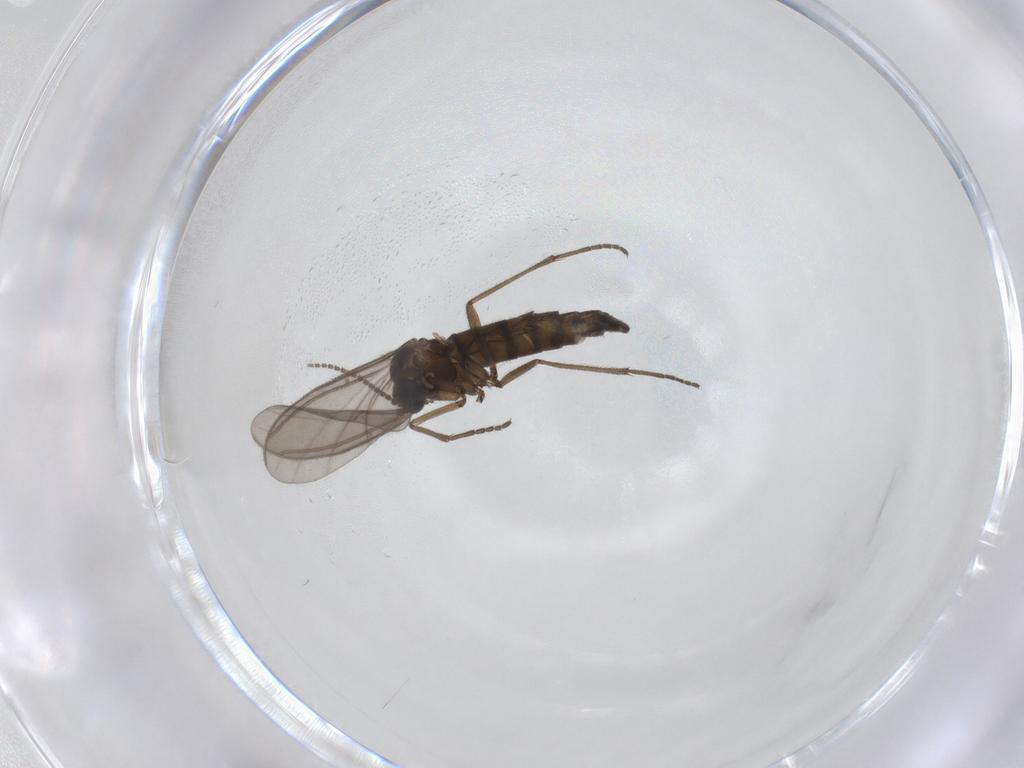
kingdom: Animalia
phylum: Arthropoda
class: Insecta
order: Diptera
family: Sciaridae
